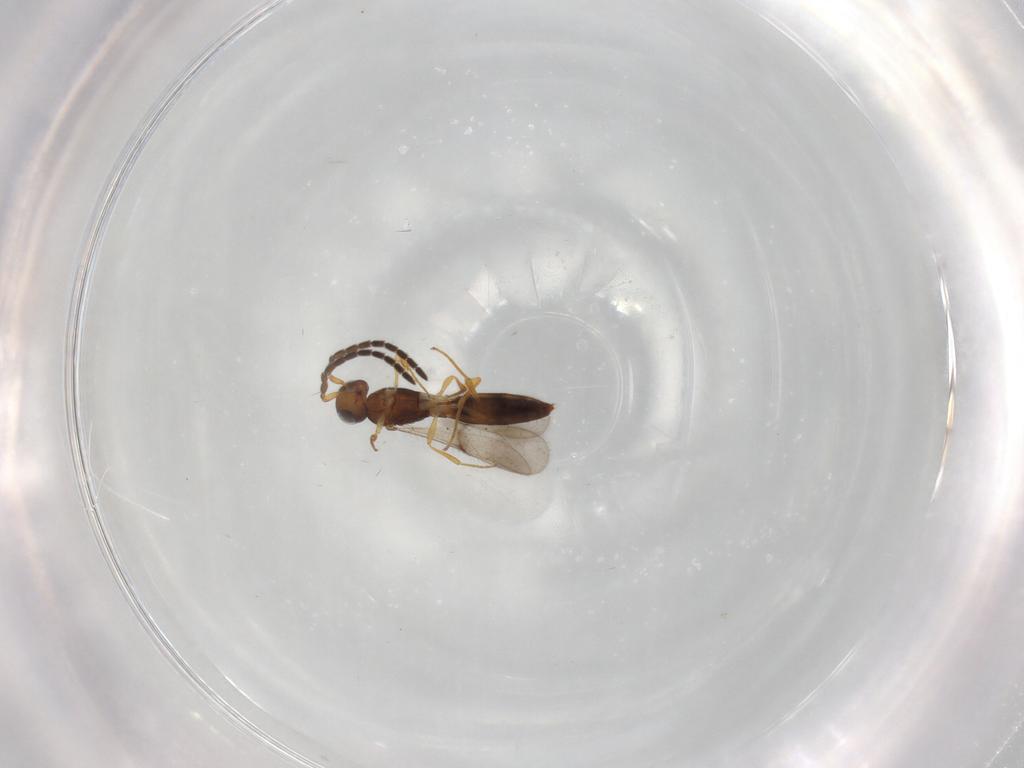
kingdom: Animalia
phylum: Arthropoda
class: Insecta
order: Hymenoptera
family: Scelionidae
